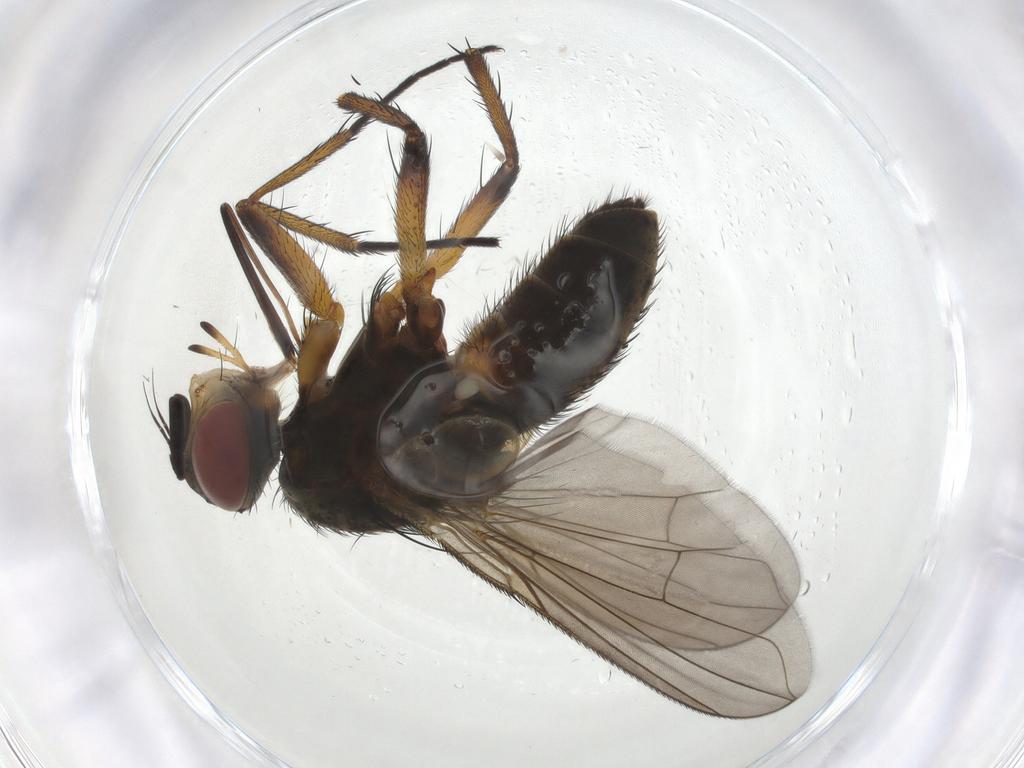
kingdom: Animalia
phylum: Arthropoda
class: Insecta
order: Diptera
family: Tachinidae
